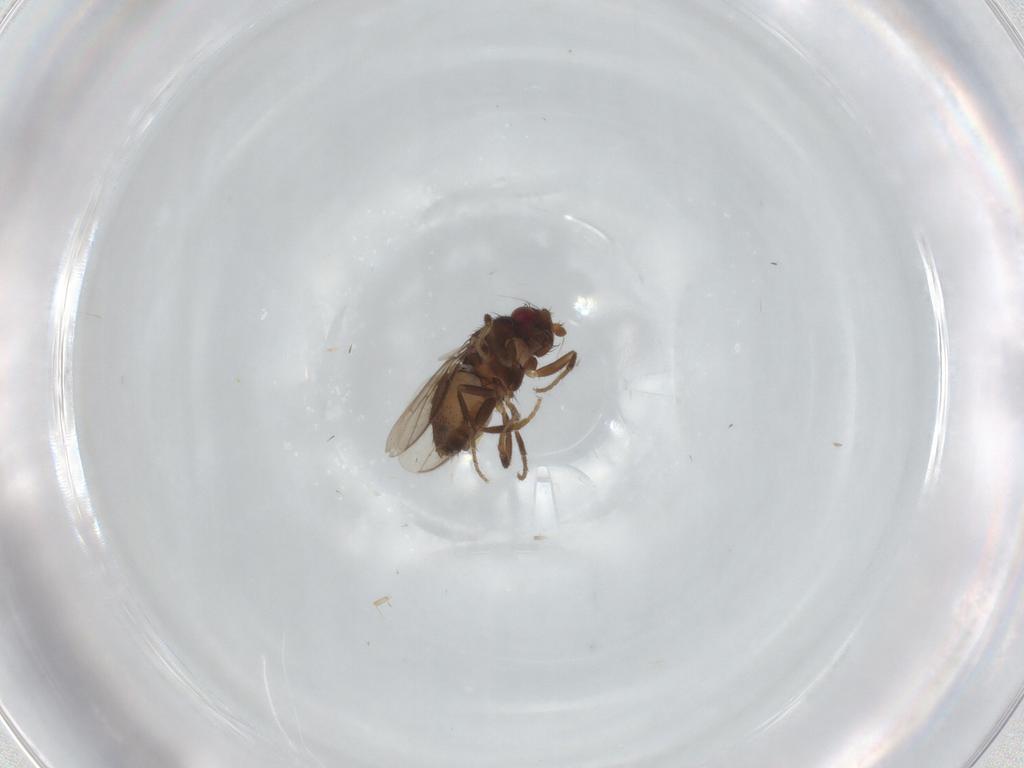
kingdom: Animalia
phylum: Arthropoda
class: Insecta
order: Diptera
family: Sphaeroceridae
